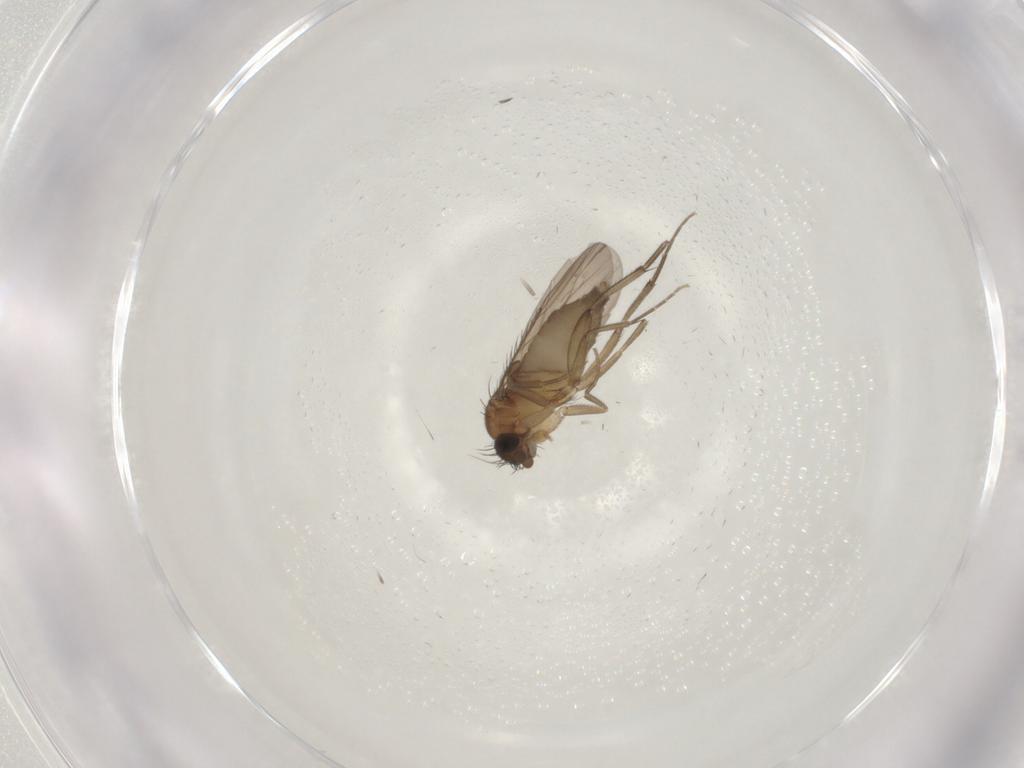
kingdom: Animalia
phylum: Arthropoda
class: Insecta
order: Diptera
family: Phoridae
